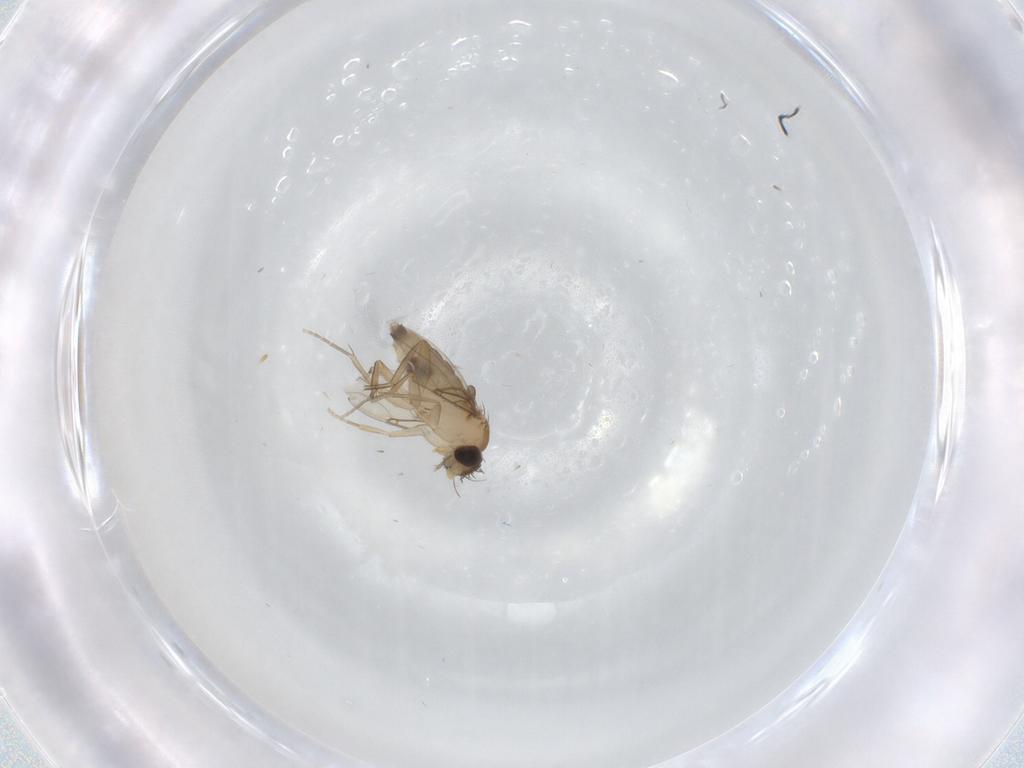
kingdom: Animalia
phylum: Arthropoda
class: Insecta
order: Diptera
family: Phoridae
